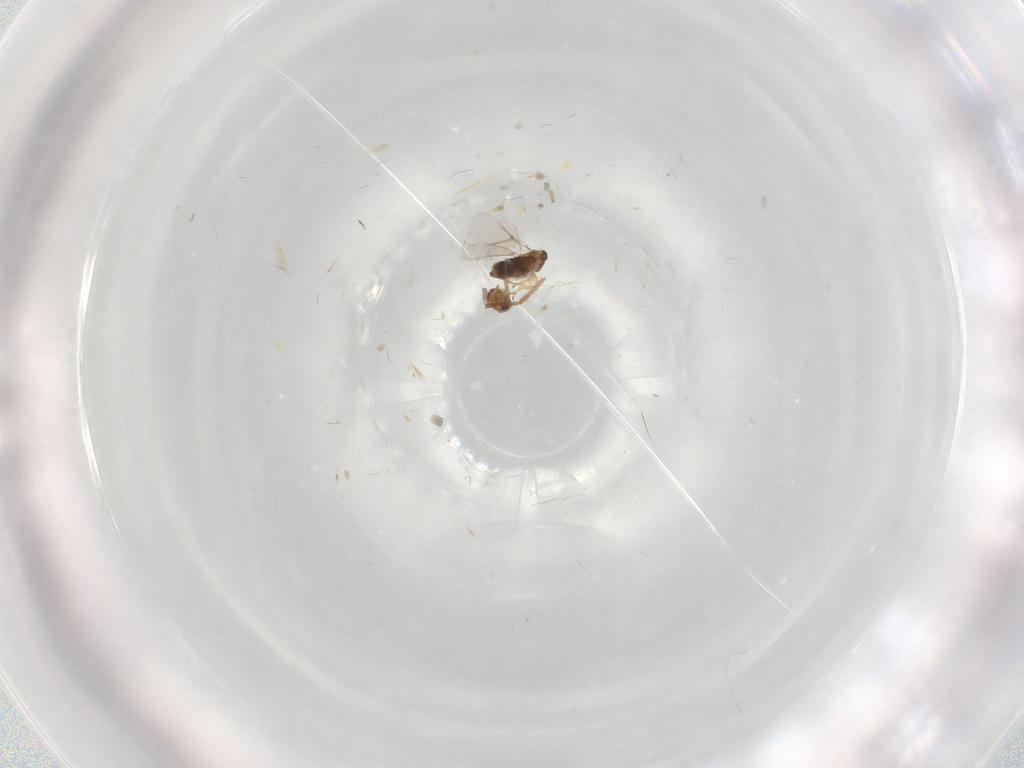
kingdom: Animalia
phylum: Arthropoda
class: Insecta
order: Hymenoptera
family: Aphelinidae
